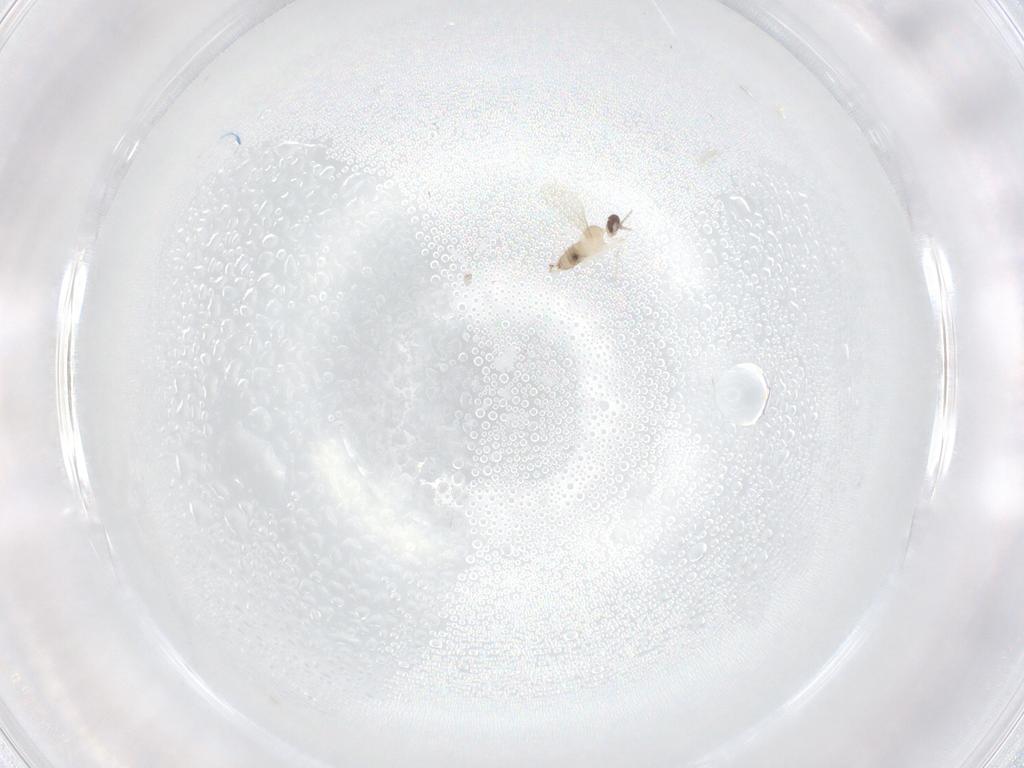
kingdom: Animalia
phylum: Arthropoda
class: Insecta
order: Diptera
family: Cecidomyiidae
